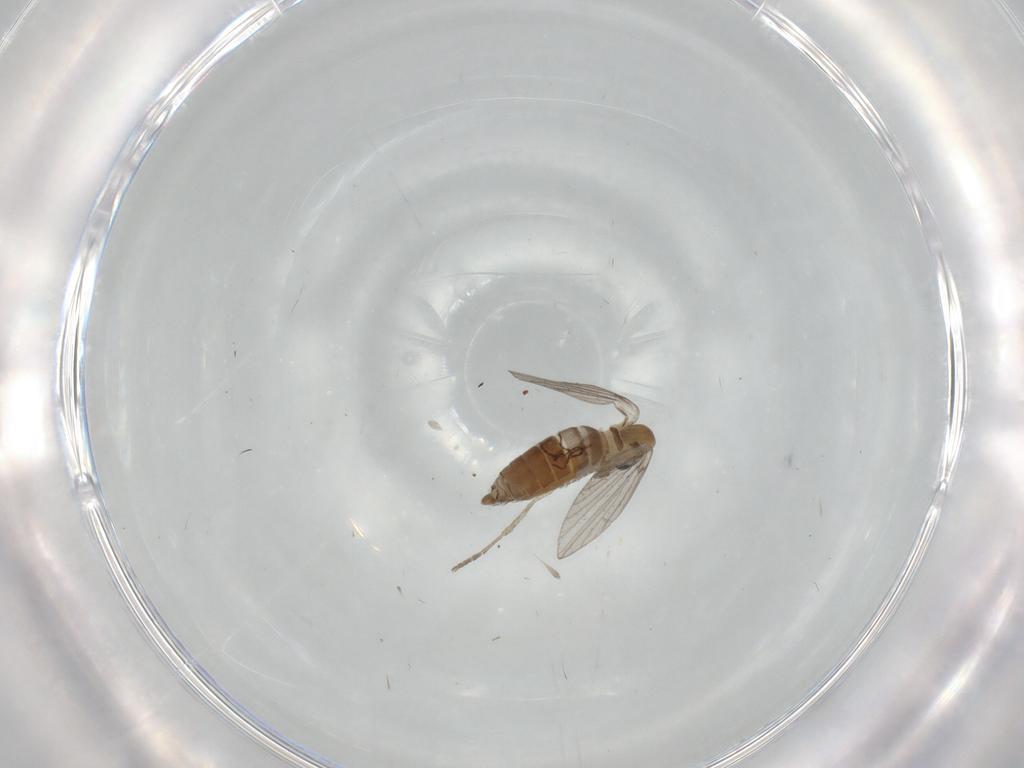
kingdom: Animalia
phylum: Arthropoda
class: Insecta
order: Diptera
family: Psychodidae
